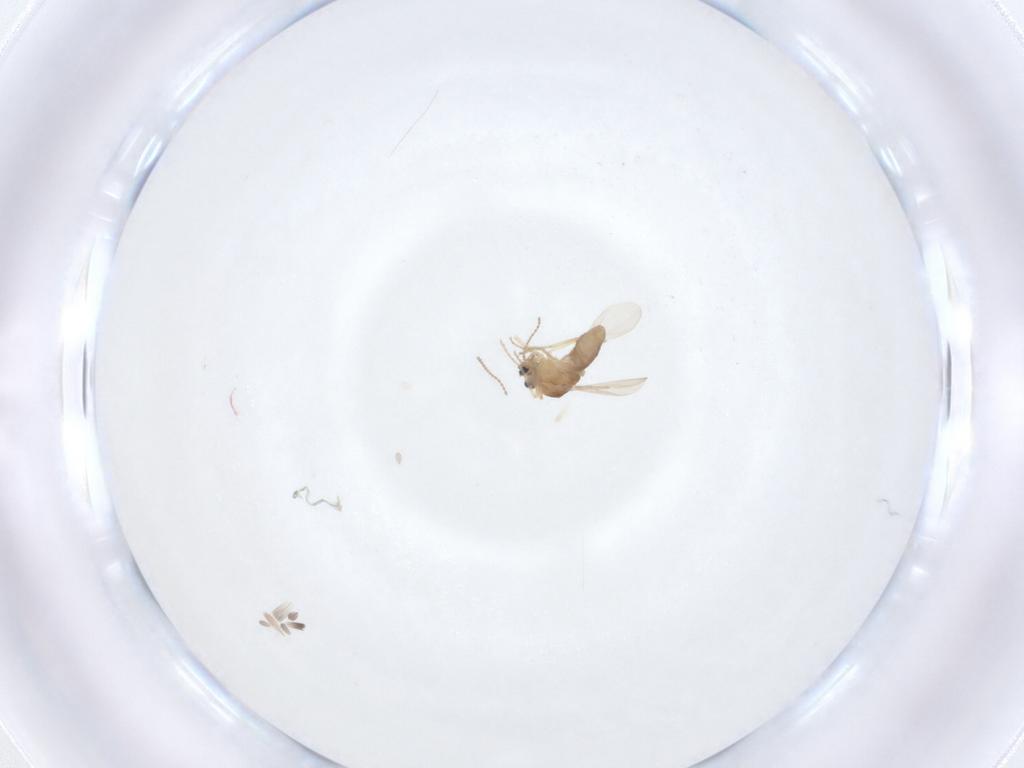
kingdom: Animalia
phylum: Arthropoda
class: Insecta
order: Diptera
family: Ceratopogonidae
